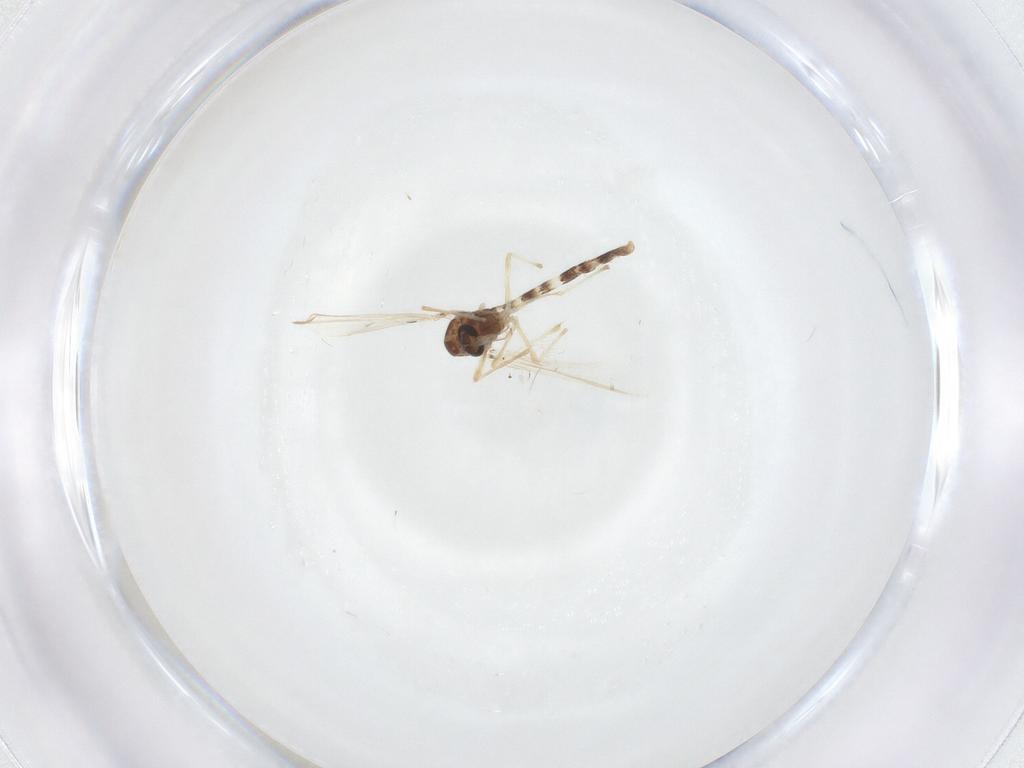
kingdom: Animalia
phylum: Arthropoda
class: Insecta
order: Diptera
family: Chironomidae
